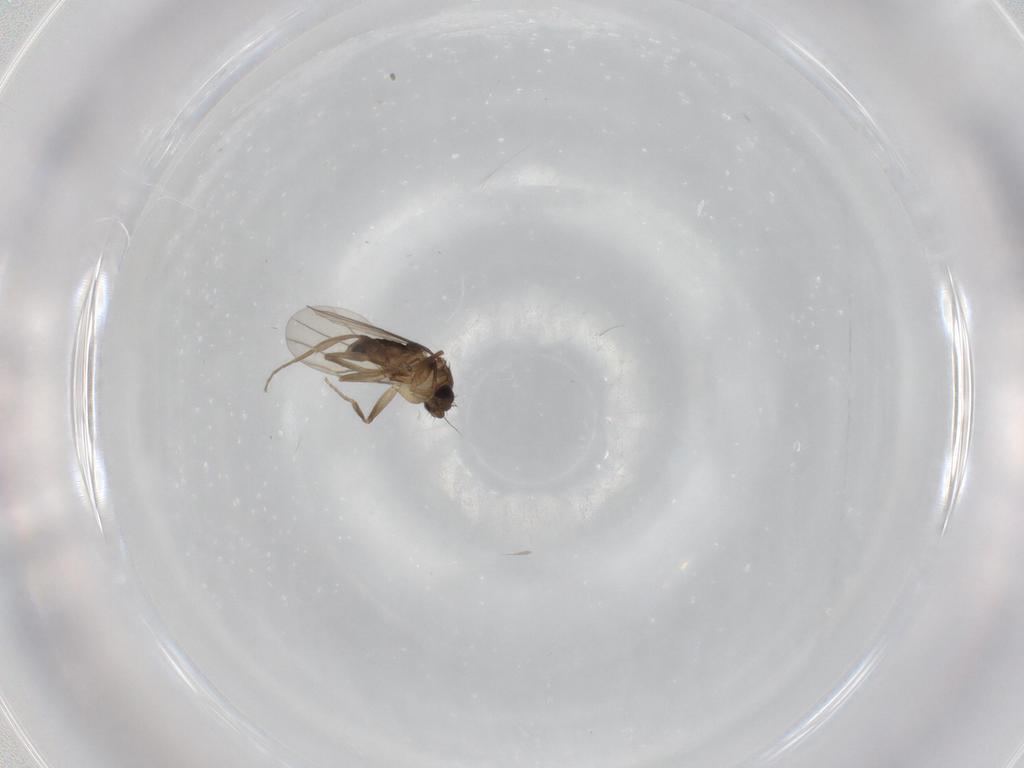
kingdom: Animalia
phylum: Arthropoda
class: Insecta
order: Diptera
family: Phoridae
